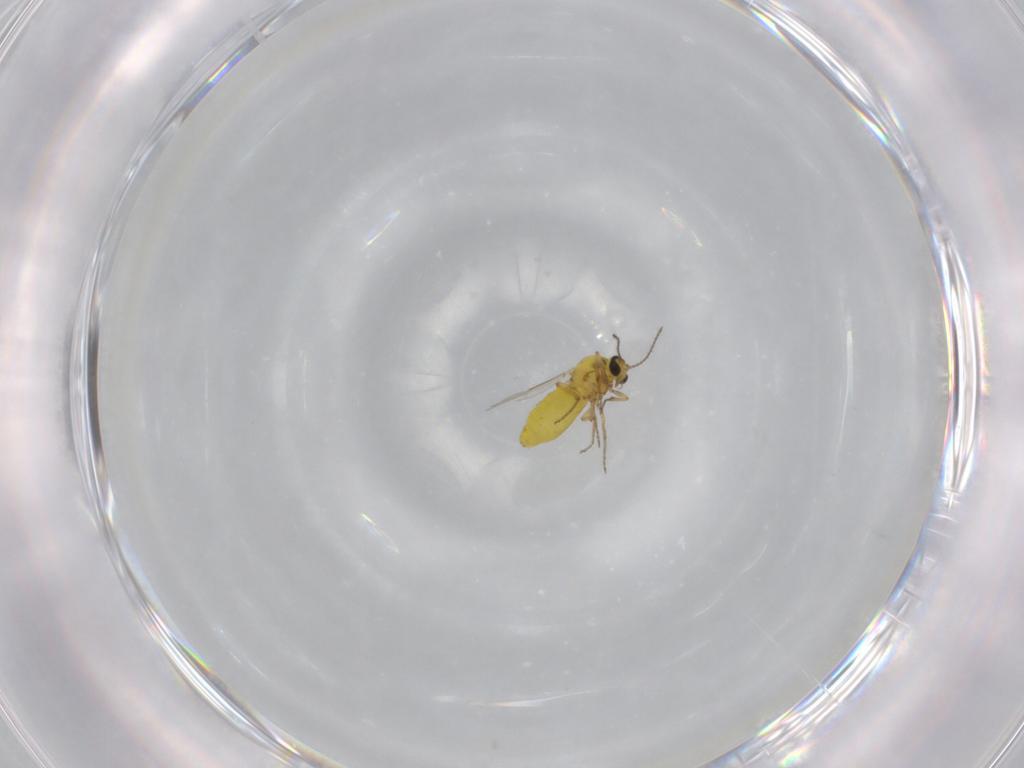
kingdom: Animalia
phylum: Arthropoda
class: Insecta
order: Diptera
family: Ceratopogonidae
